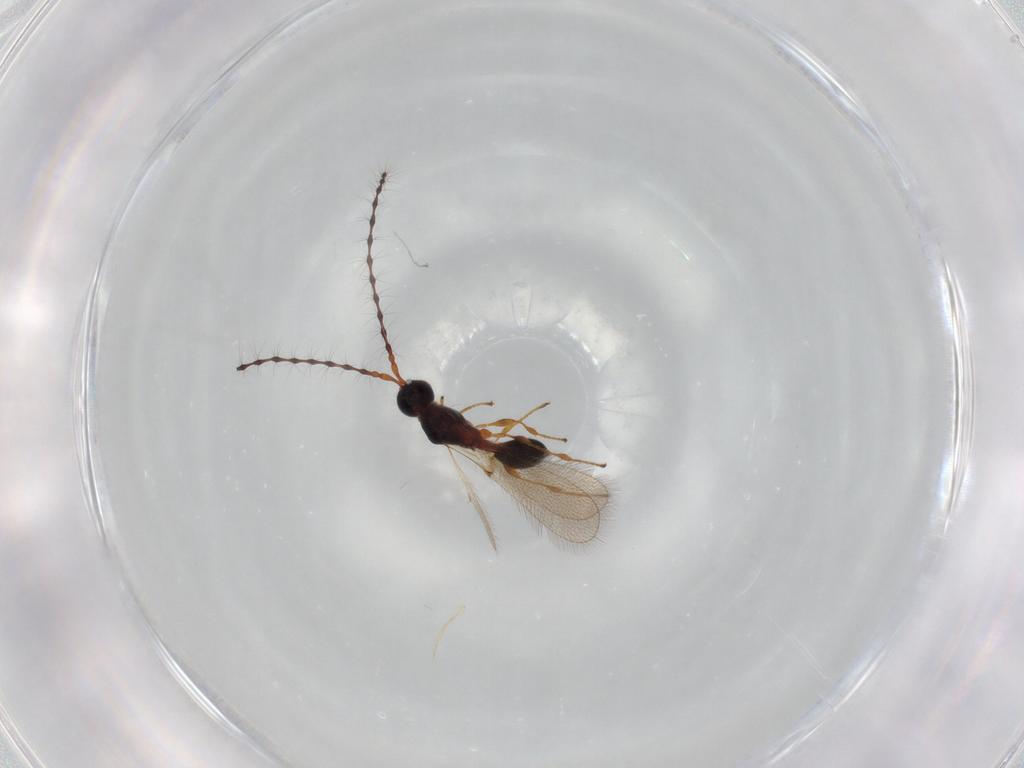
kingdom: Animalia
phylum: Arthropoda
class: Insecta
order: Hymenoptera
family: Diapriidae
